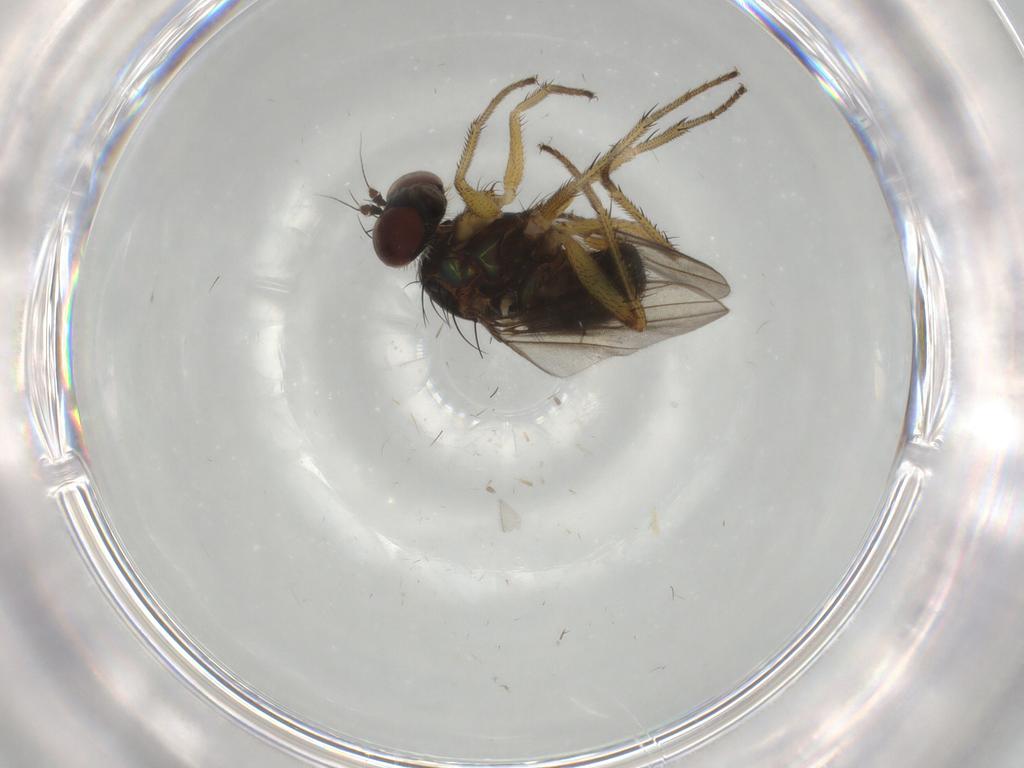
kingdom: Animalia
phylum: Arthropoda
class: Insecta
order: Diptera
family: Dolichopodidae
